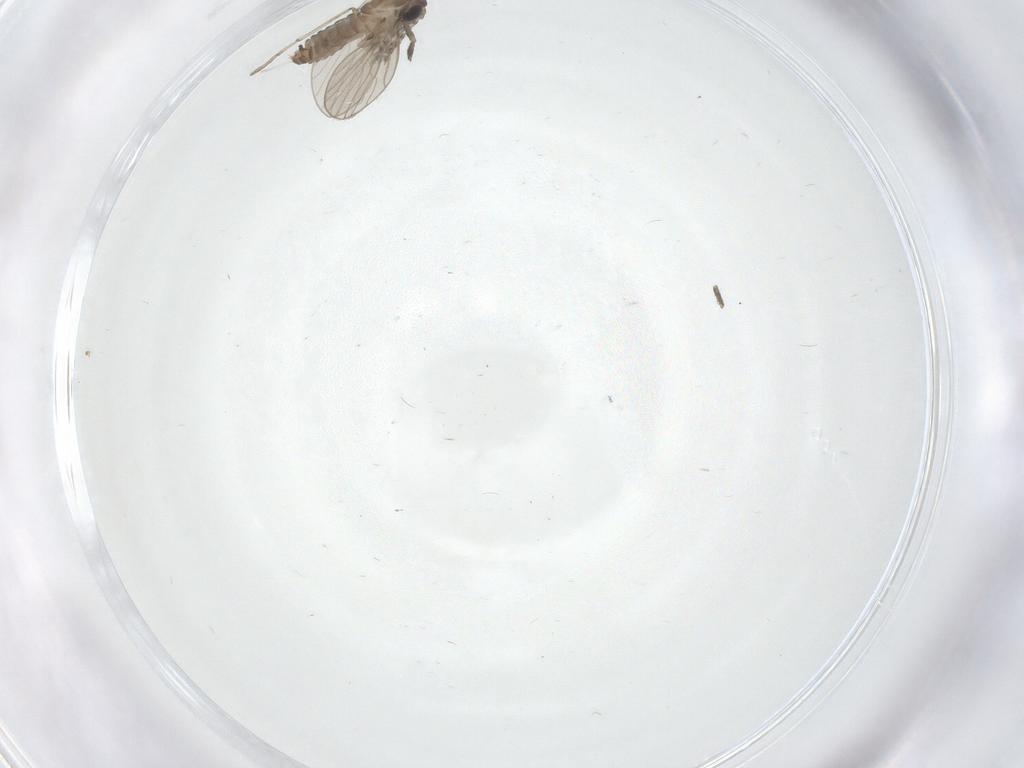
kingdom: Animalia
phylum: Arthropoda
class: Insecta
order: Diptera
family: Psychodidae
